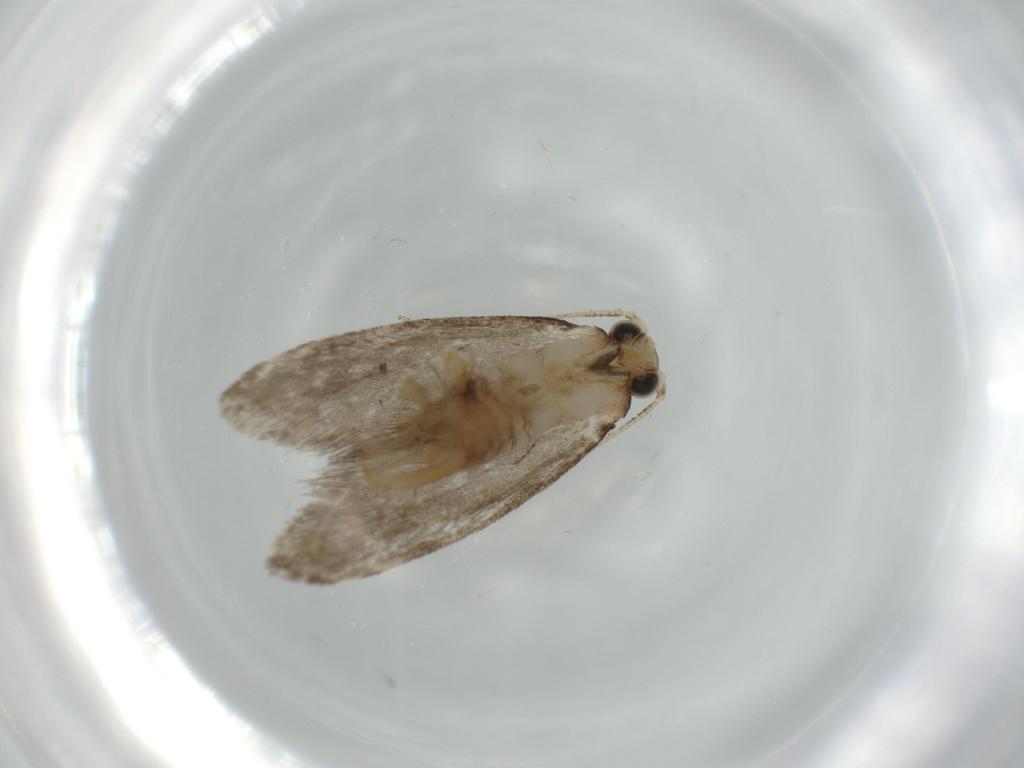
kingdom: Animalia
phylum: Arthropoda
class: Insecta
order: Lepidoptera
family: Tineidae
